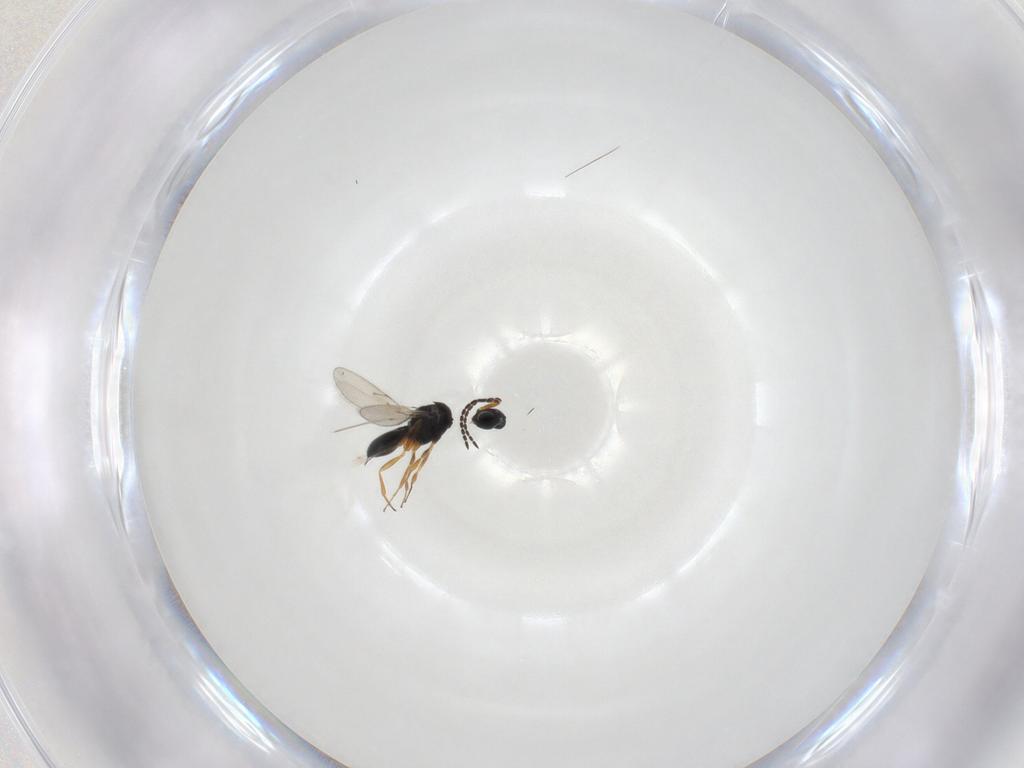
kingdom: Animalia
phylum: Arthropoda
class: Insecta
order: Hymenoptera
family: Scelionidae
